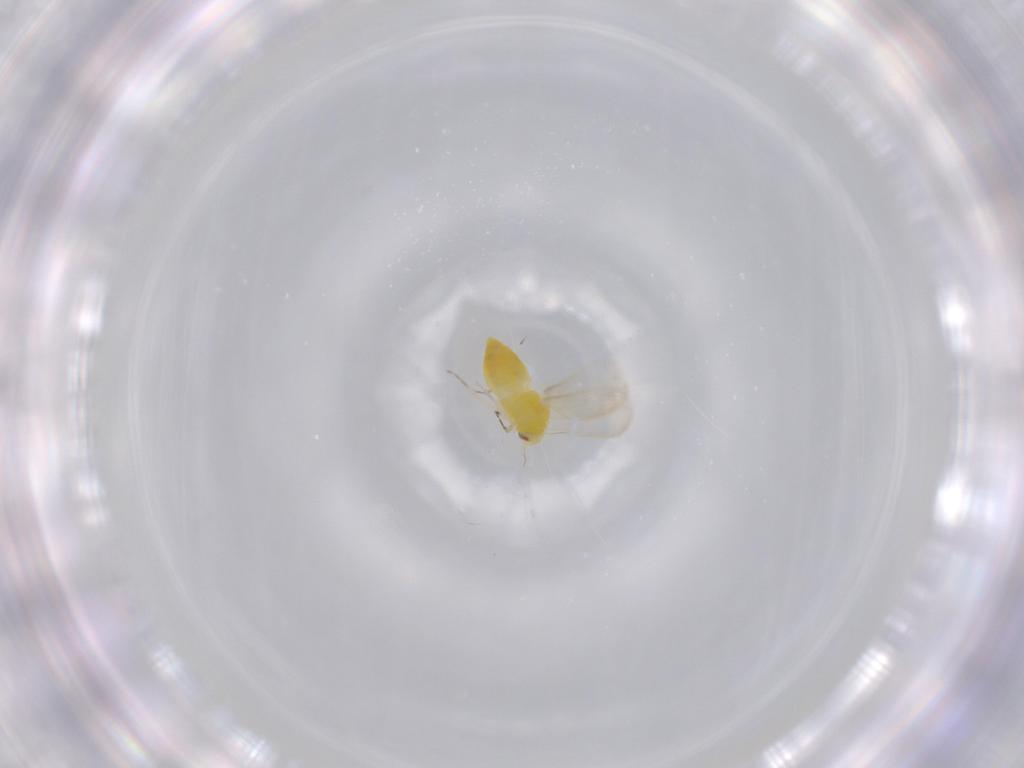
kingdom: Animalia
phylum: Arthropoda
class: Insecta
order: Hemiptera
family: Aleyrodidae
